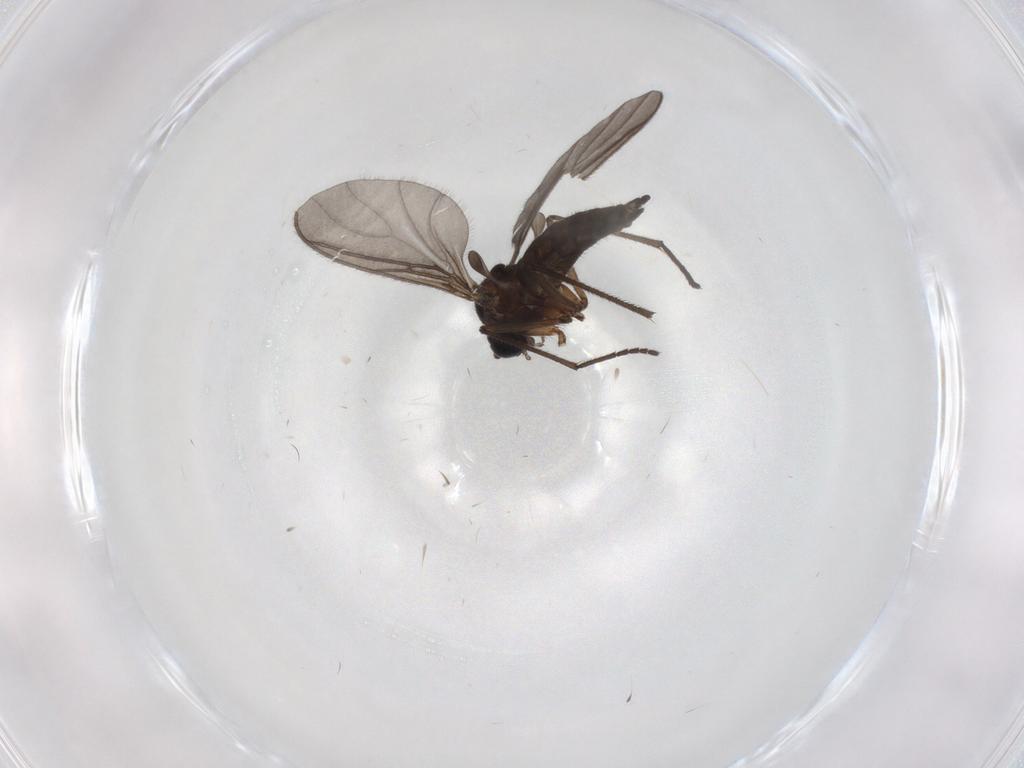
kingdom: Animalia
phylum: Arthropoda
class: Insecta
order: Diptera
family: Sciaridae
